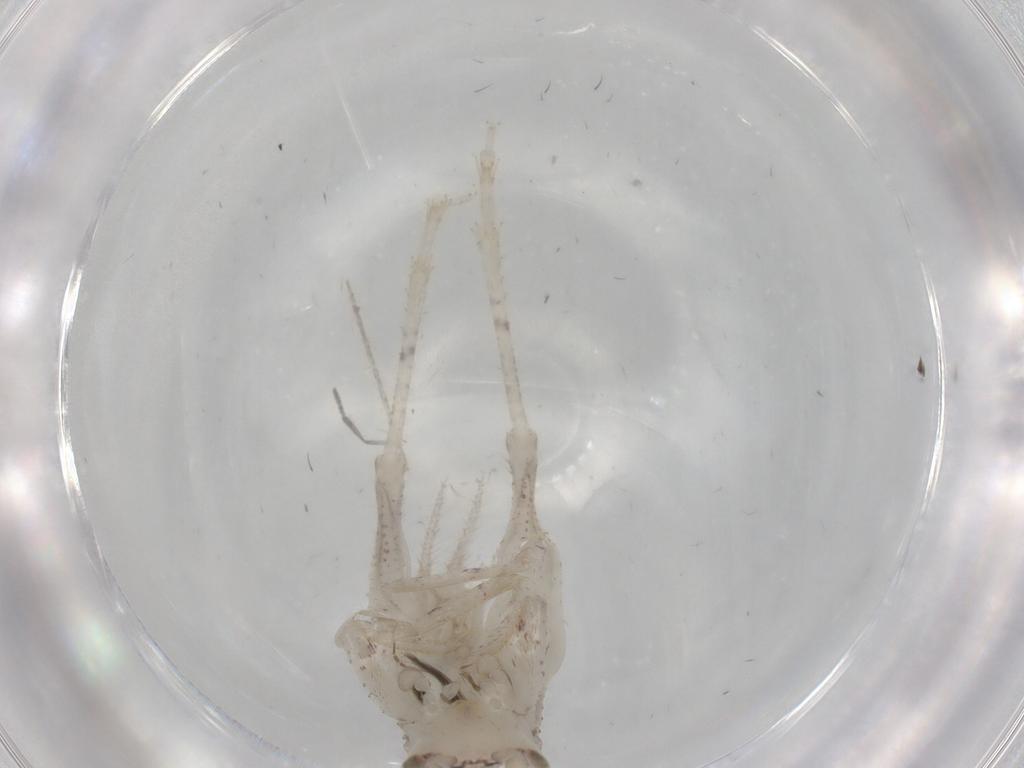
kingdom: Animalia
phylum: Arthropoda
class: Insecta
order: Orthoptera
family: Gryllidae
